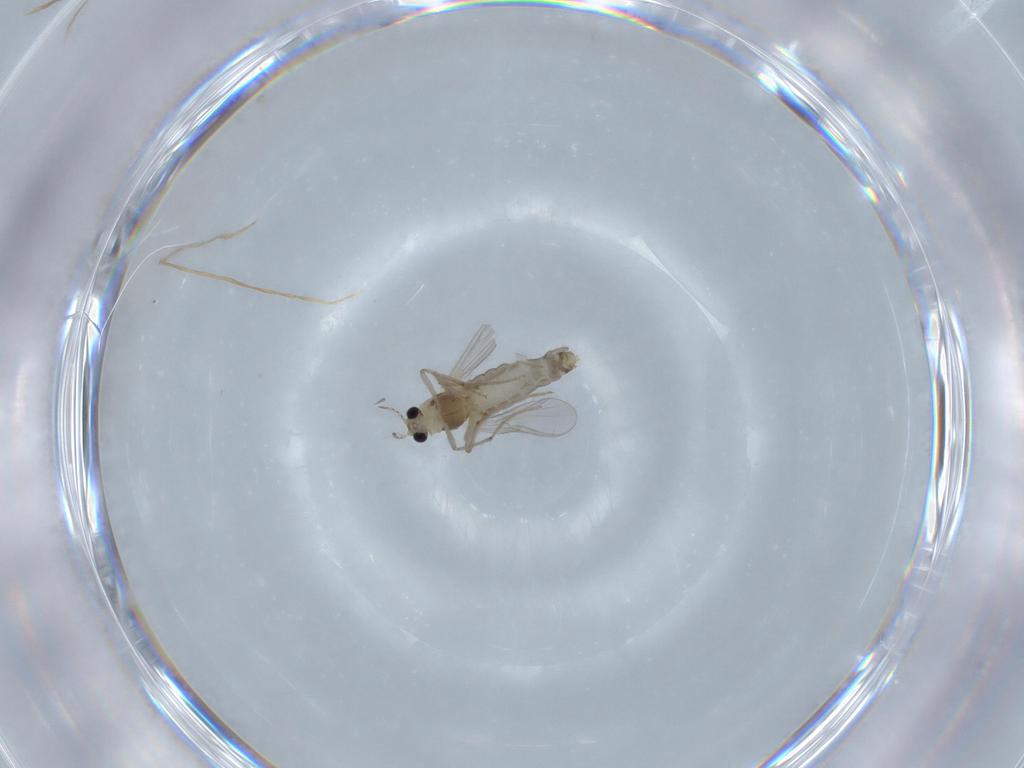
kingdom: Animalia
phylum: Arthropoda
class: Insecta
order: Diptera
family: Chironomidae
